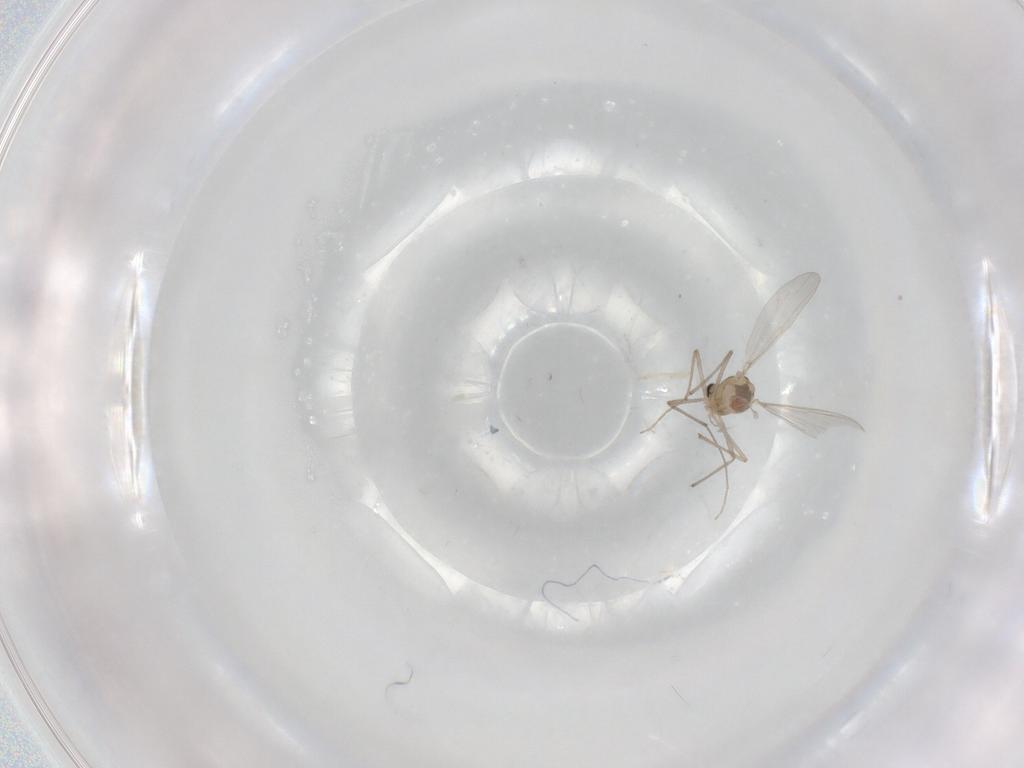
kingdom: Animalia
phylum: Arthropoda
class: Insecta
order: Diptera
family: Chironomidae
